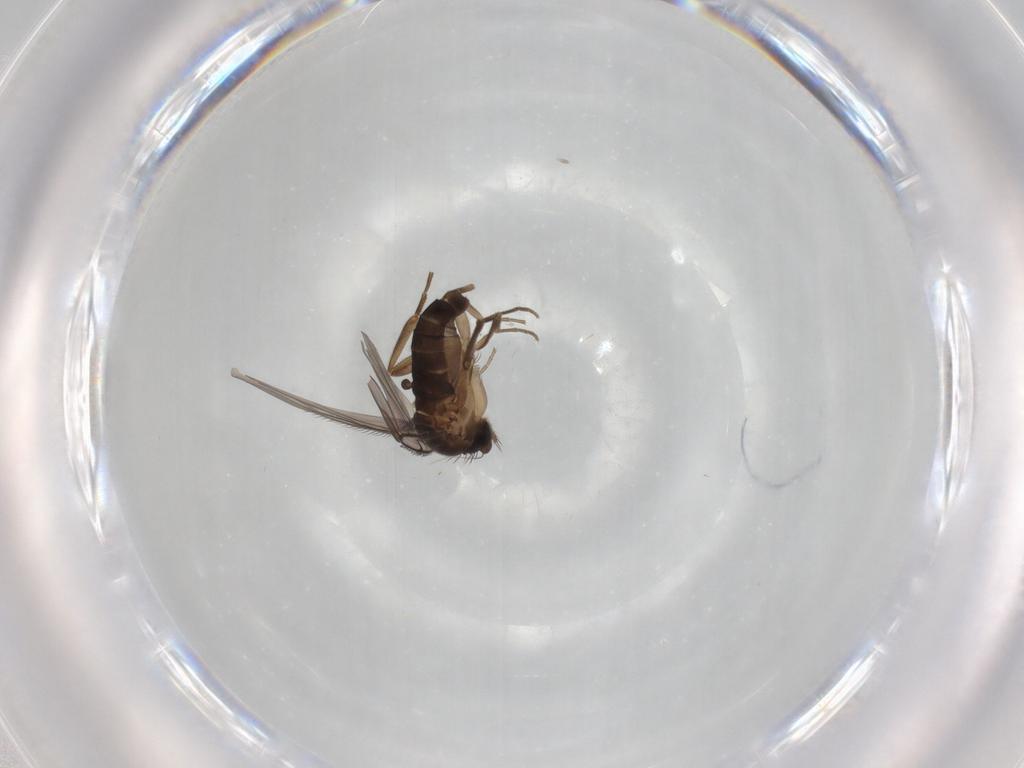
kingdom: Animalia
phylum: Arthropoda
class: Insecta
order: Diptera
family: Phoridae
